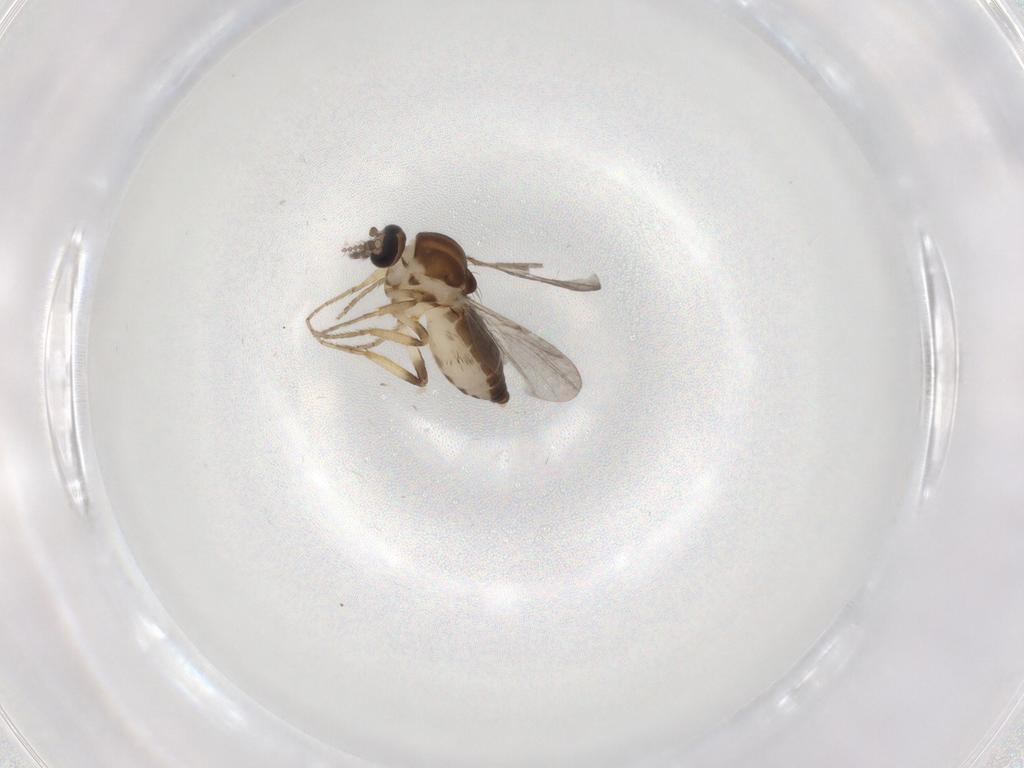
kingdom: Animalia
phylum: Arthropoda
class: Insecta
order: Diptera
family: Ceratopogonidae
